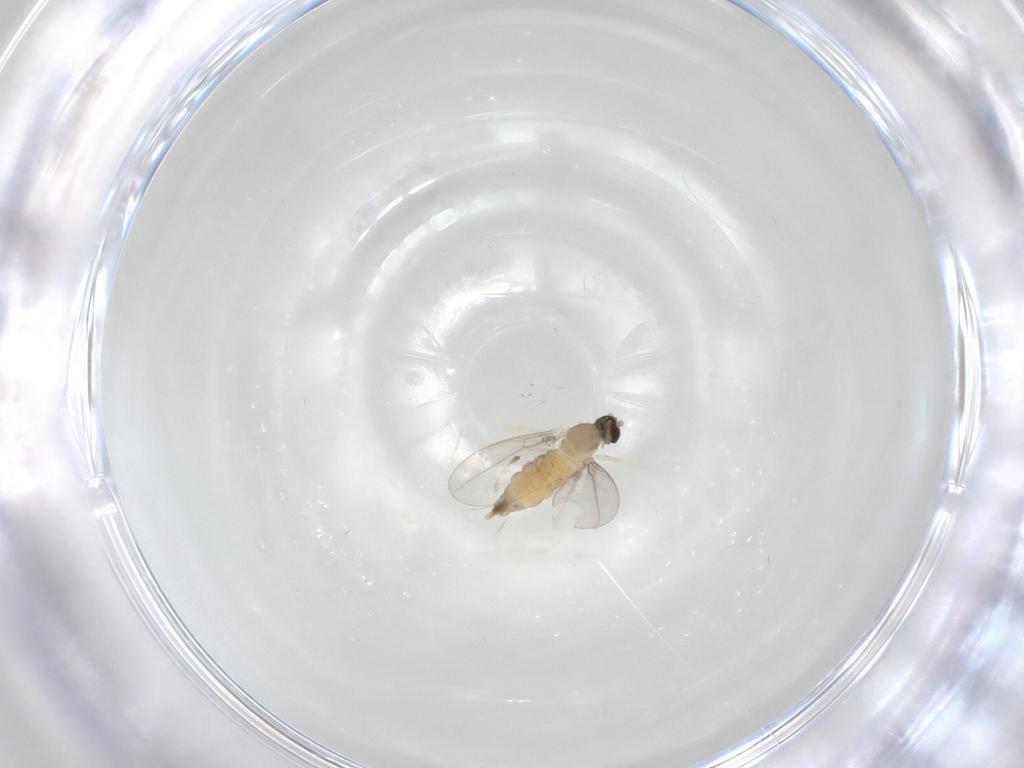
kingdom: Animalia
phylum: Arthropoda
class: Insecta
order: Diptera
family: Cecidomyiidae
